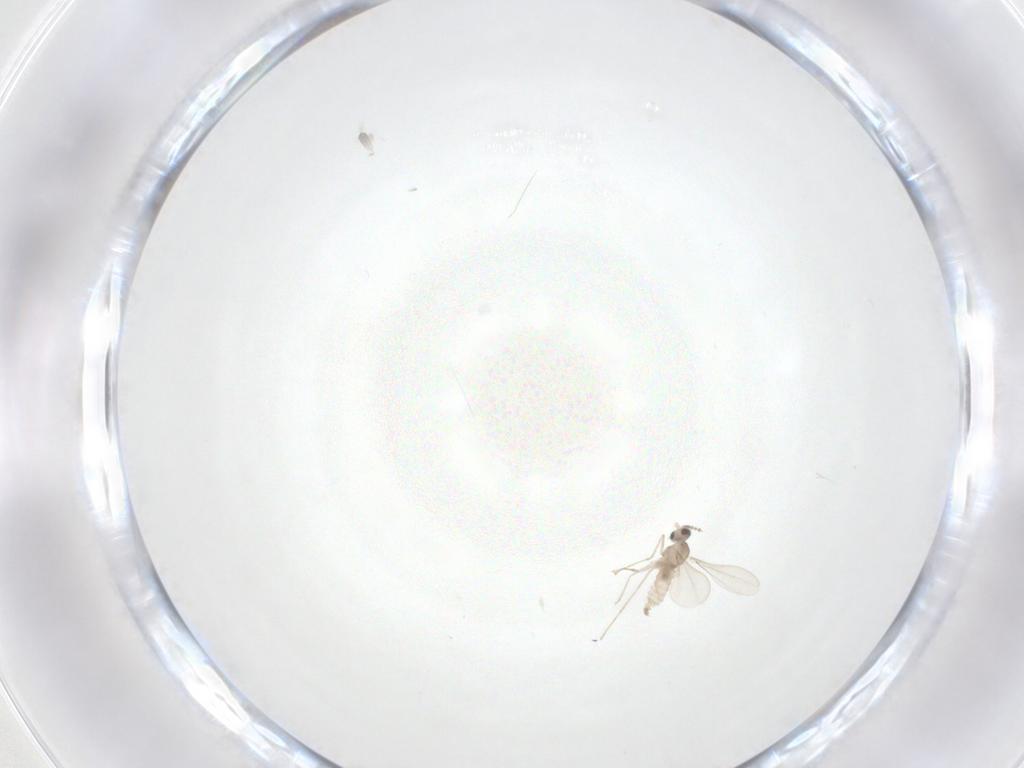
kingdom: Animalia
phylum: Arthropoda
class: Insecta
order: Diptera
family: Cecidomyiidae
